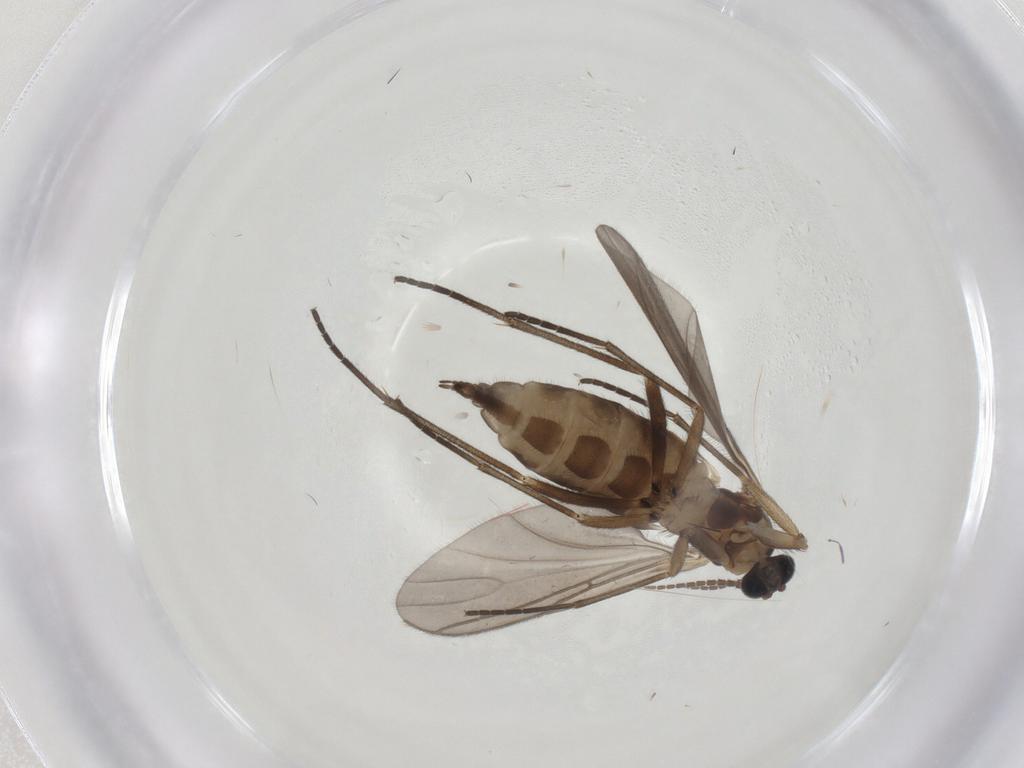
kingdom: Animalia
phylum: Arthropoda
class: Insecta
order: Diptera
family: Sciaridae
